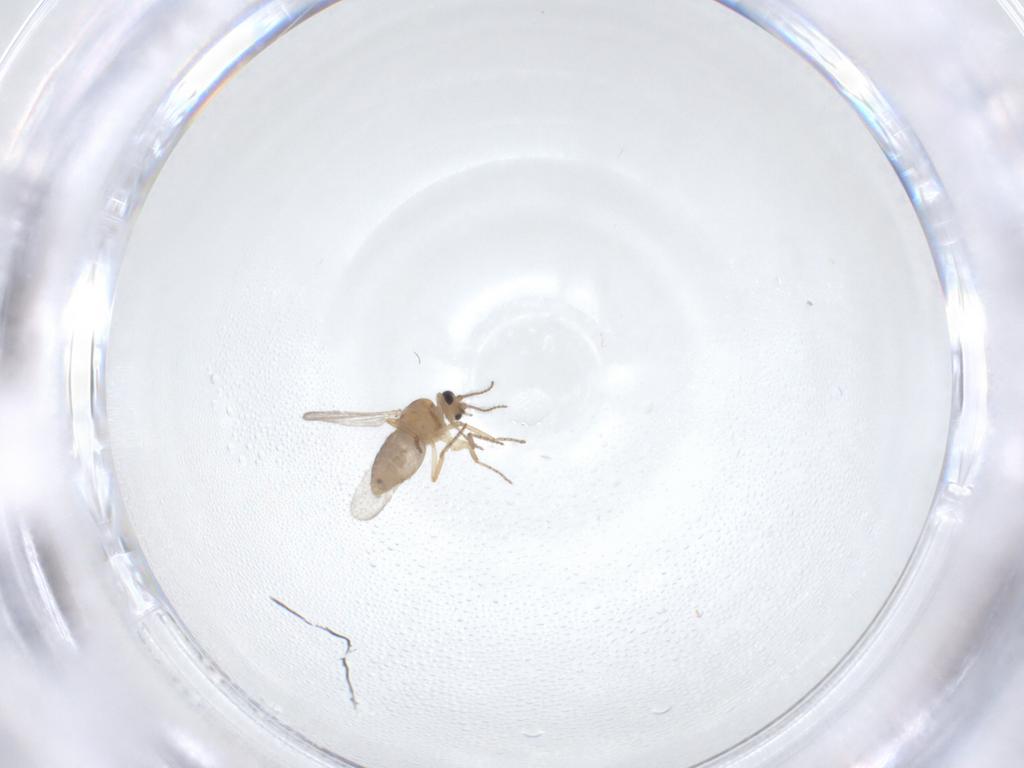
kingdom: Animalia
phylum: Arthropoda
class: Insecta
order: Diptera
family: Ceratopogonidae
